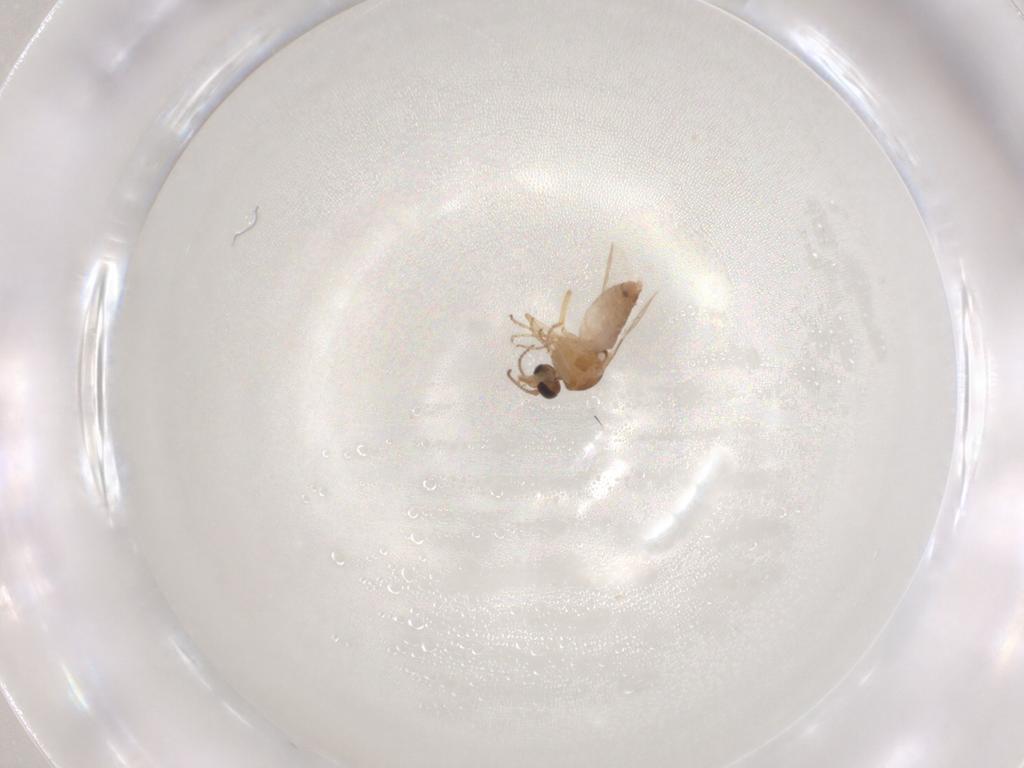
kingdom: Animalia
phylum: Arthropoda
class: Insecta
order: Diptera
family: Ceratopogonidae
